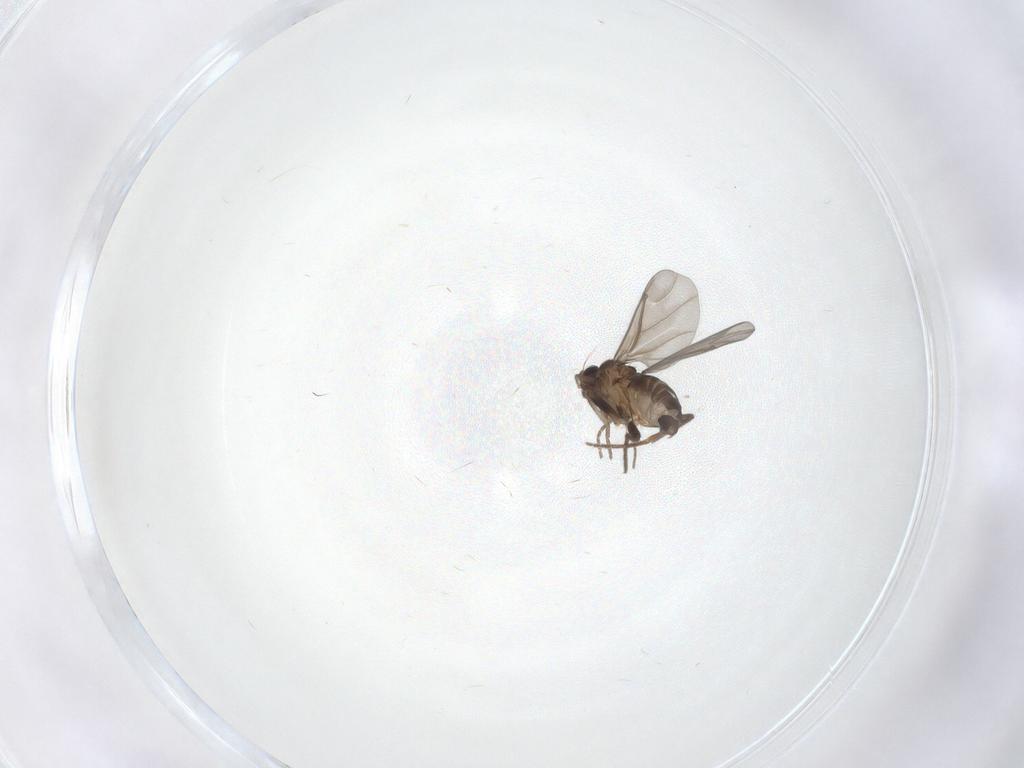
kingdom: Animalia
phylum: Arthropoda
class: Insecta
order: Diptera
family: Phoridae
